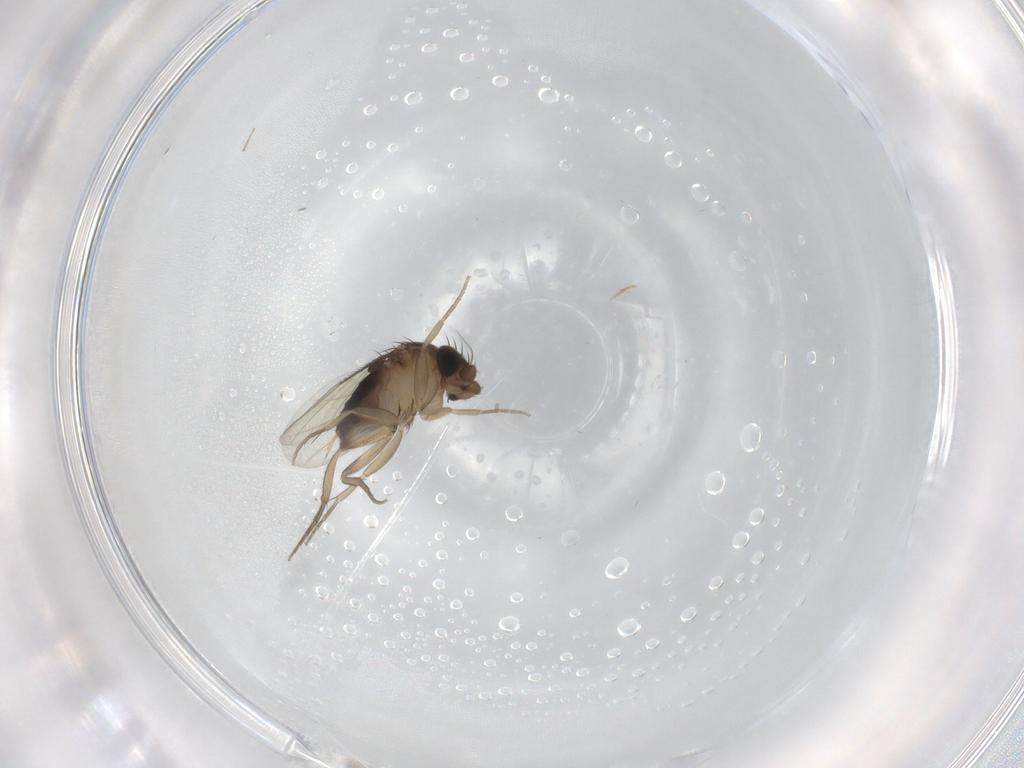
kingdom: Animalia
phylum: Arthropoda
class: Insecta
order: Diptera
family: Phoridae
